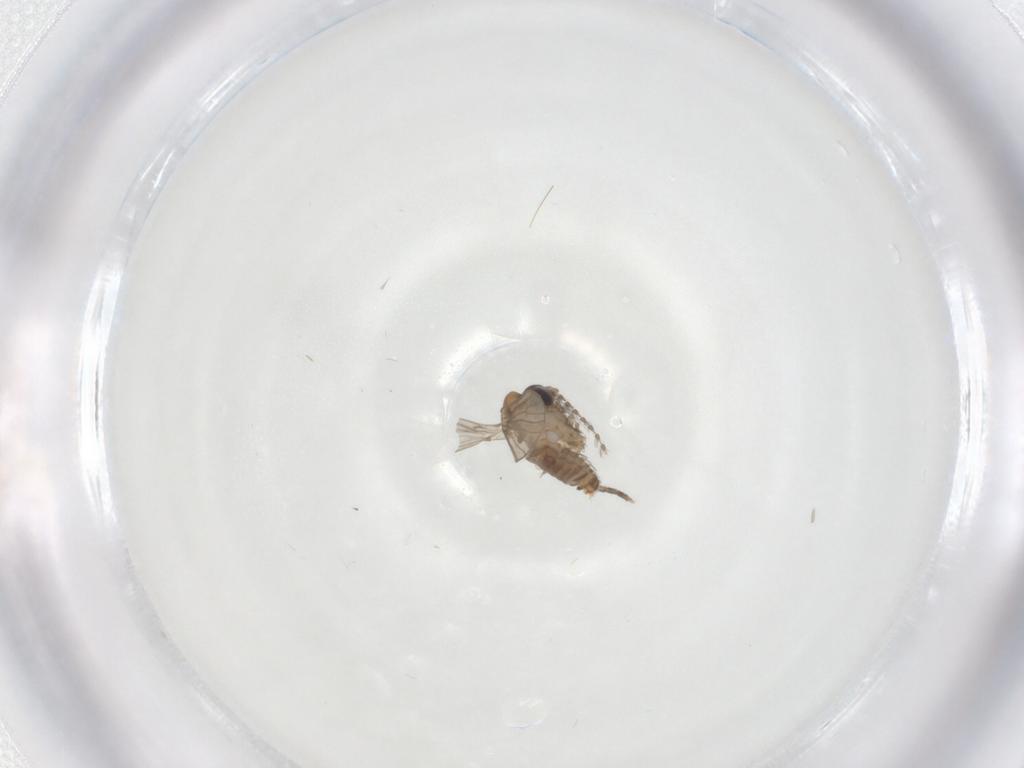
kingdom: Animalia
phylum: Arthropoda
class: Insecta
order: Diptera
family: Psychodidae
